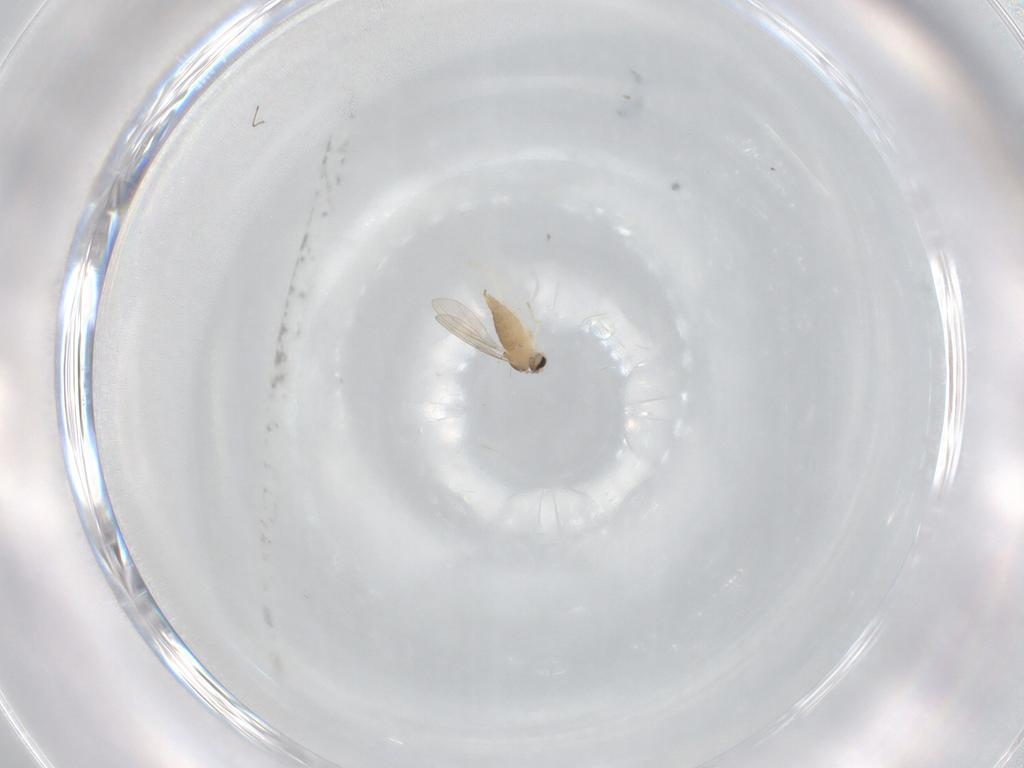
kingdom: Animalia
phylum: Arthropoda
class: Insecta
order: Diptera
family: Cecidomyiidae
